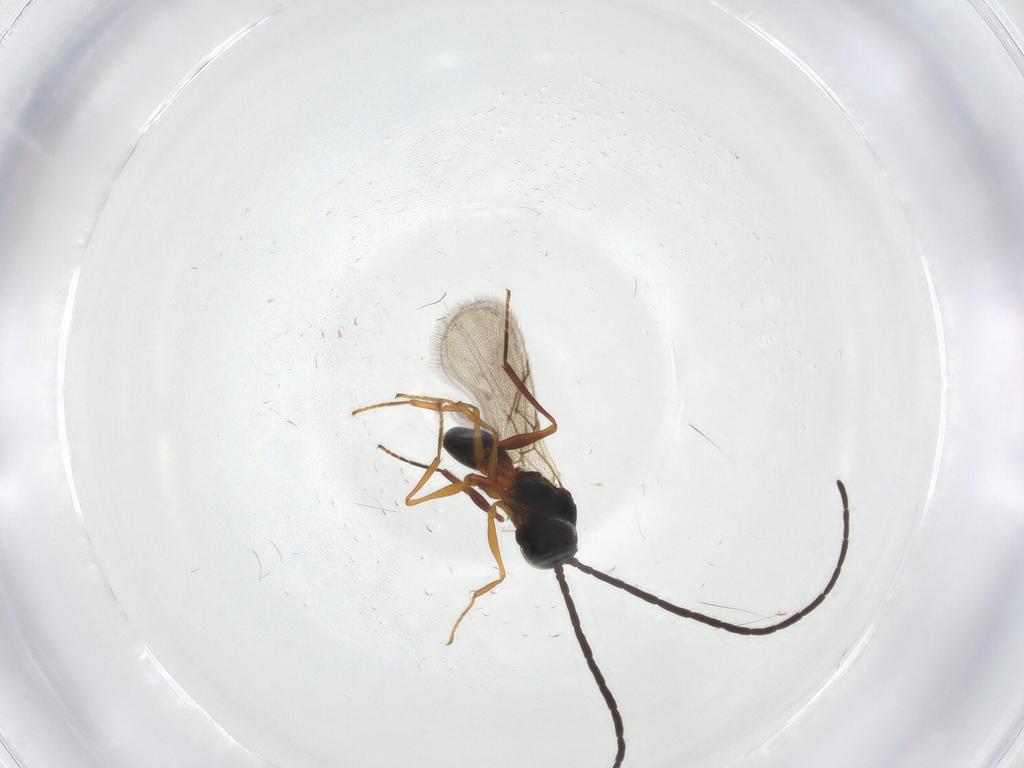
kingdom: Animalia
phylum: Arthropoda
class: Insecta
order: Hymenoptera
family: Figitidae
